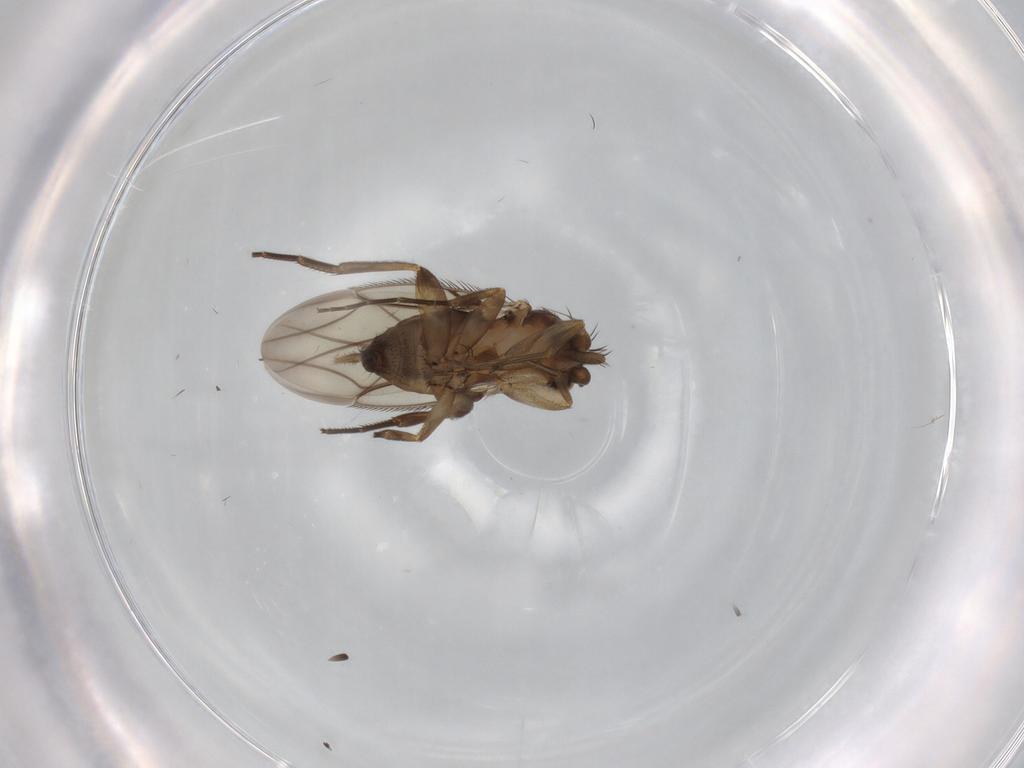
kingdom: Animalia
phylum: Arthropoda
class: Insecta
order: Diptera
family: Phoridae
